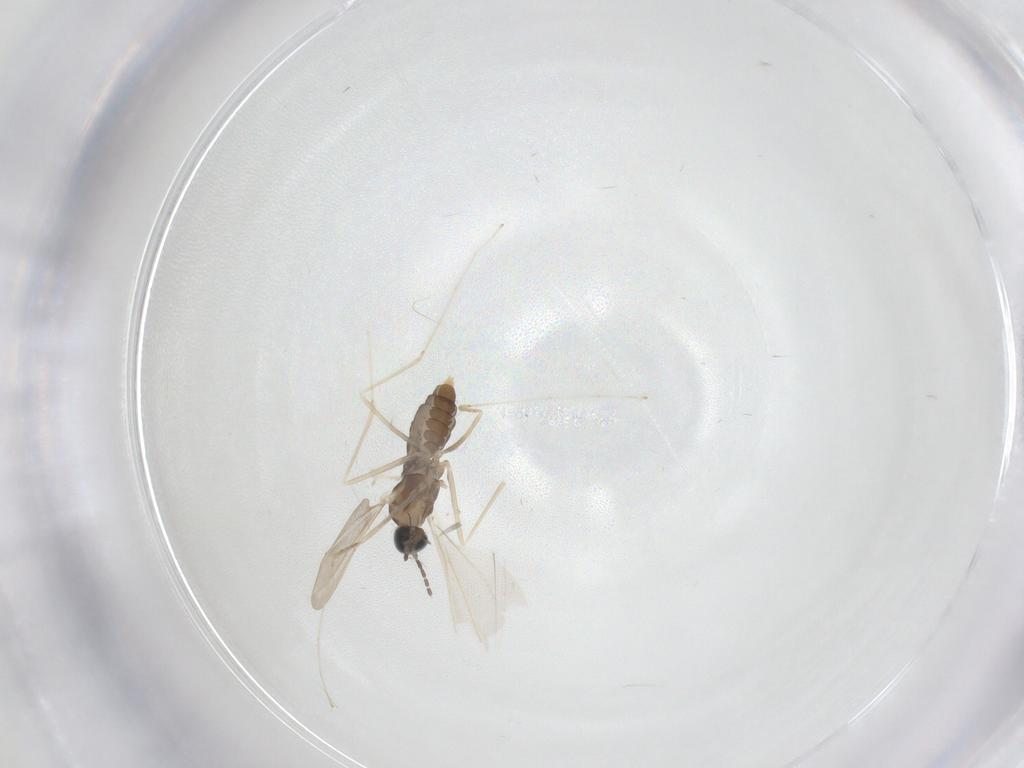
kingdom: Animalia
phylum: Arthropoda
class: Insecta
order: Diptera
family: Cecidomyiidae
